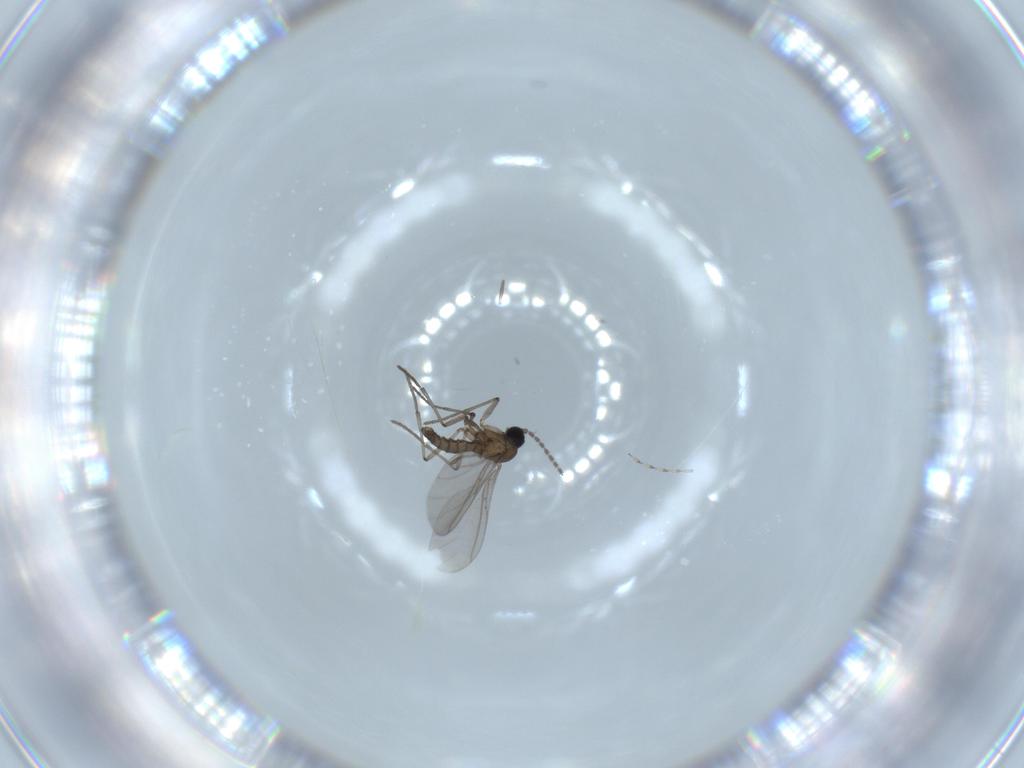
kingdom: Animalia
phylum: Arthropoda
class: Insecta
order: Diptera
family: Sciaridae
